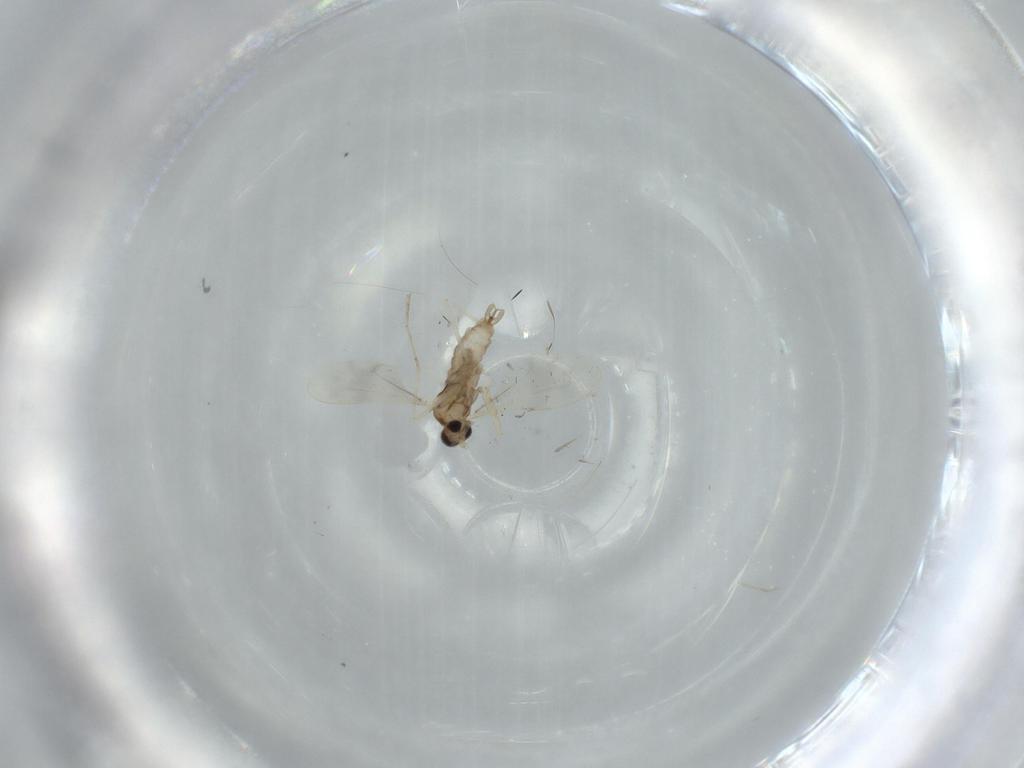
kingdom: Animalia
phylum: Arthropoda
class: Insecta
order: Diptera
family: Cecidomyiidae
